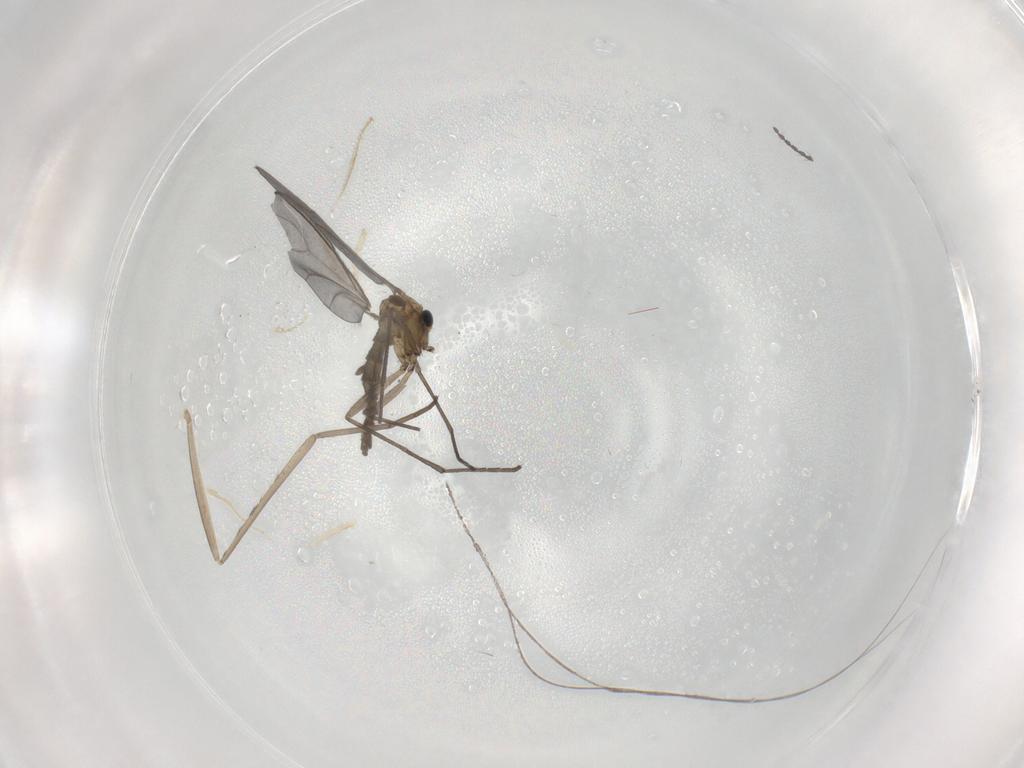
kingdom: Animalia
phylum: Arthropoda
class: Insecta
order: Diptera
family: Sciaridae
